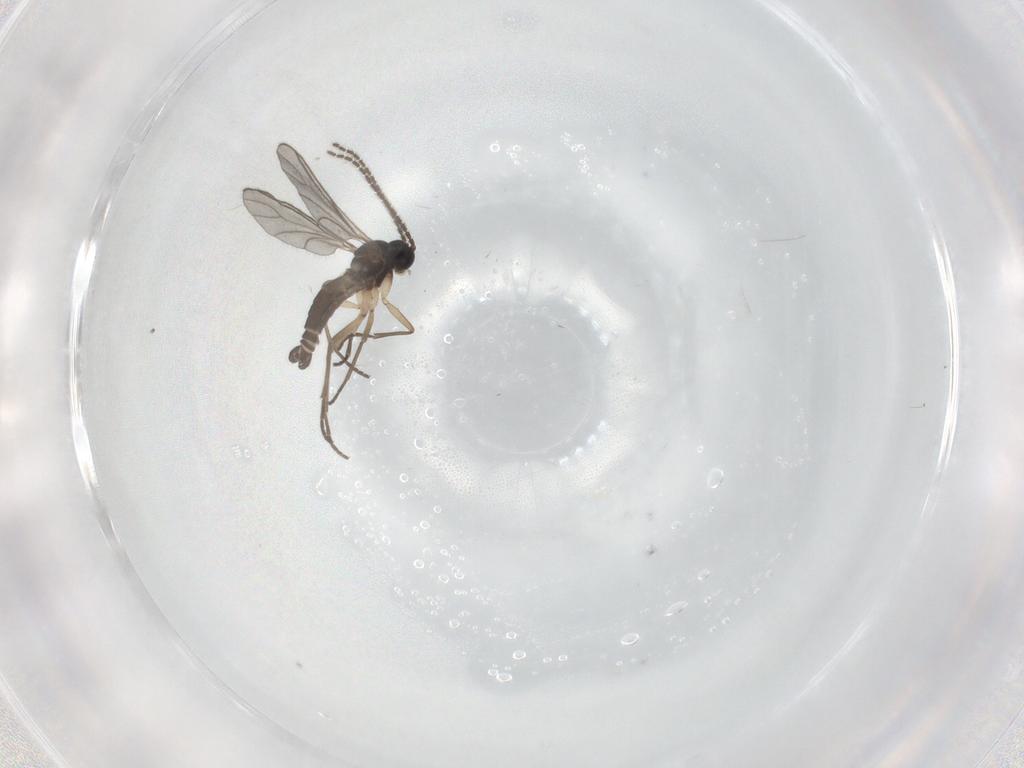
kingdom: Animalia
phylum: Arthropoda
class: Insecta
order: Diptera
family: Sciaridae
